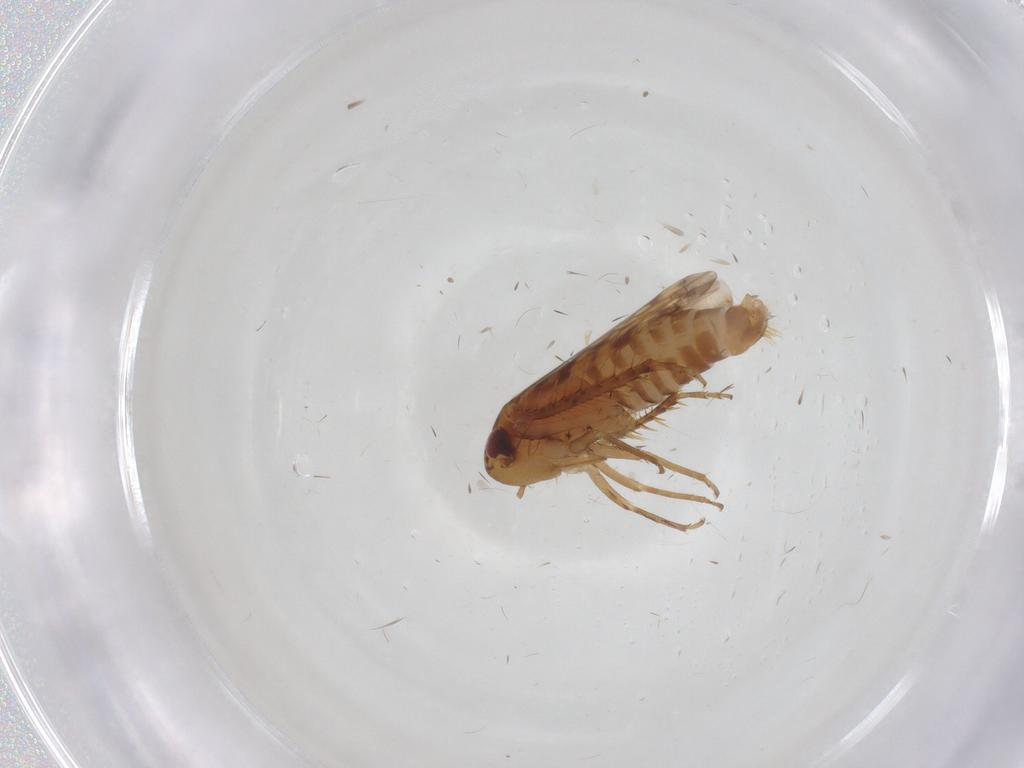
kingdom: Animalia
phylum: Arthropoda
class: Insecta
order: Hemiptera
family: Cicadellidae
